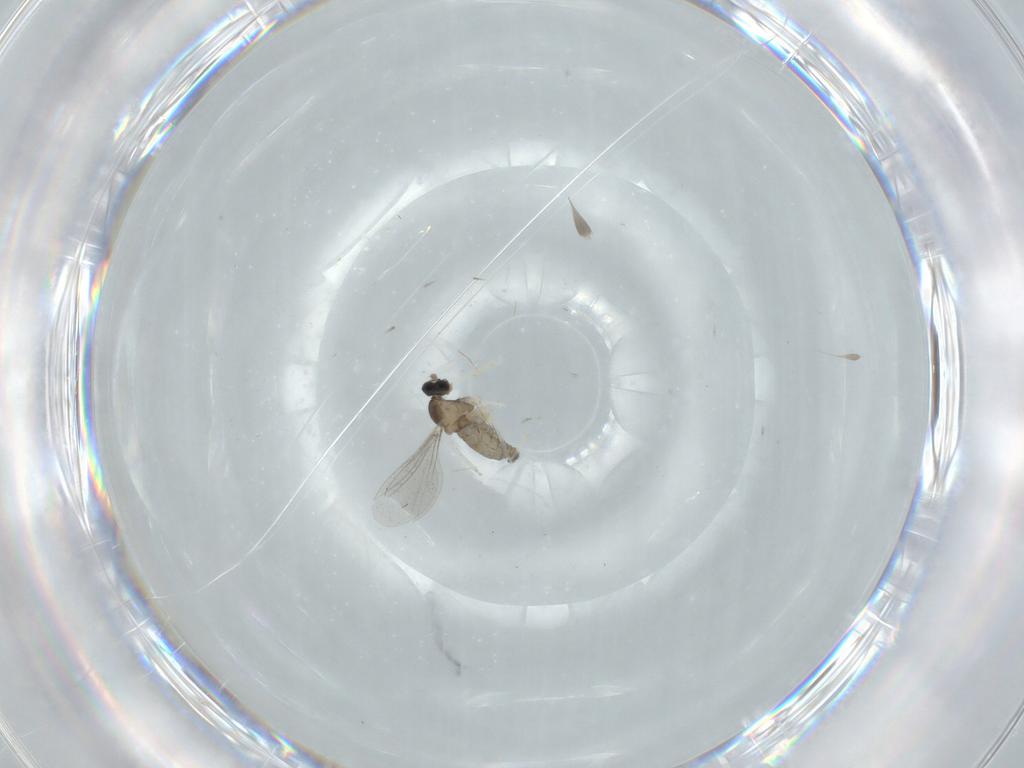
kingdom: Animalia
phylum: Arthropoda
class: Insecta
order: Diptera
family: Cecidomyiidae
